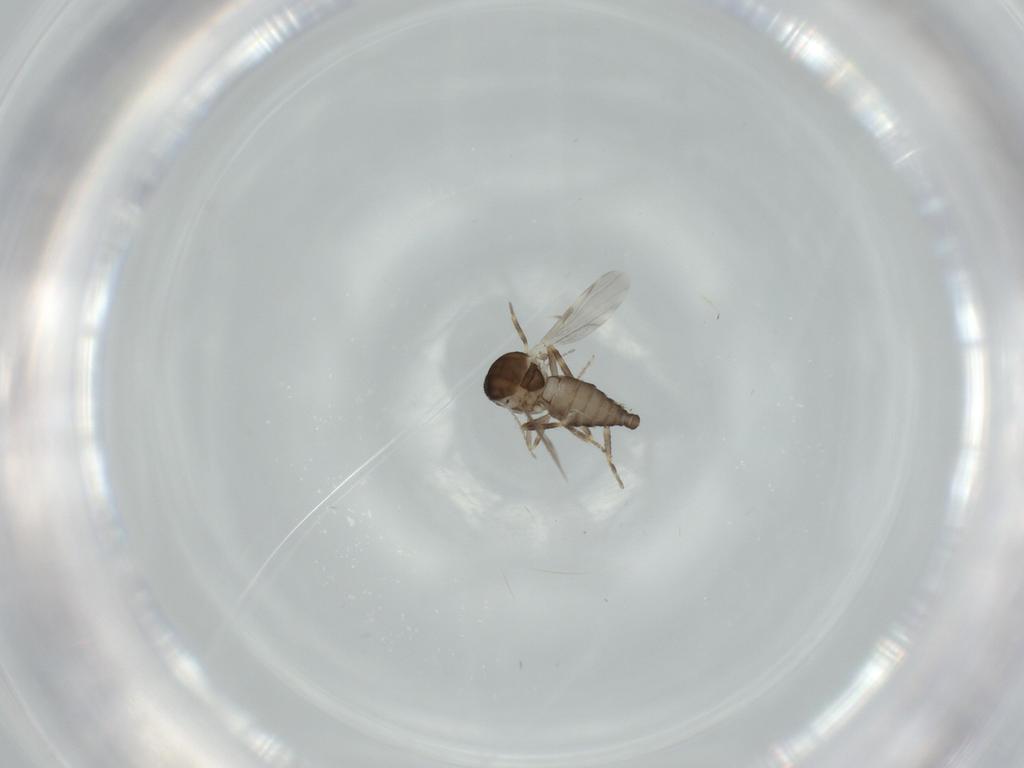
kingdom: Animalia
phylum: Arthropoda
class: Insecta
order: Diptera
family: Ceratopogonidae
